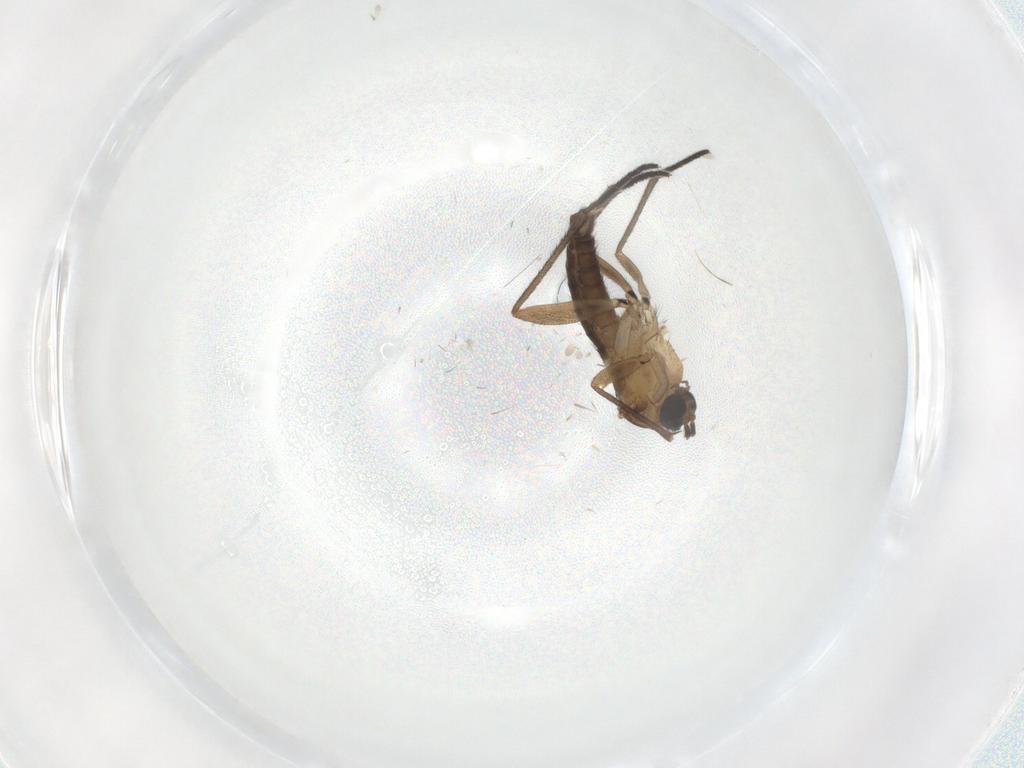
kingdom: Animalia
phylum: Arthropoda
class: Insecta
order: Diptera
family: Sciaridae
